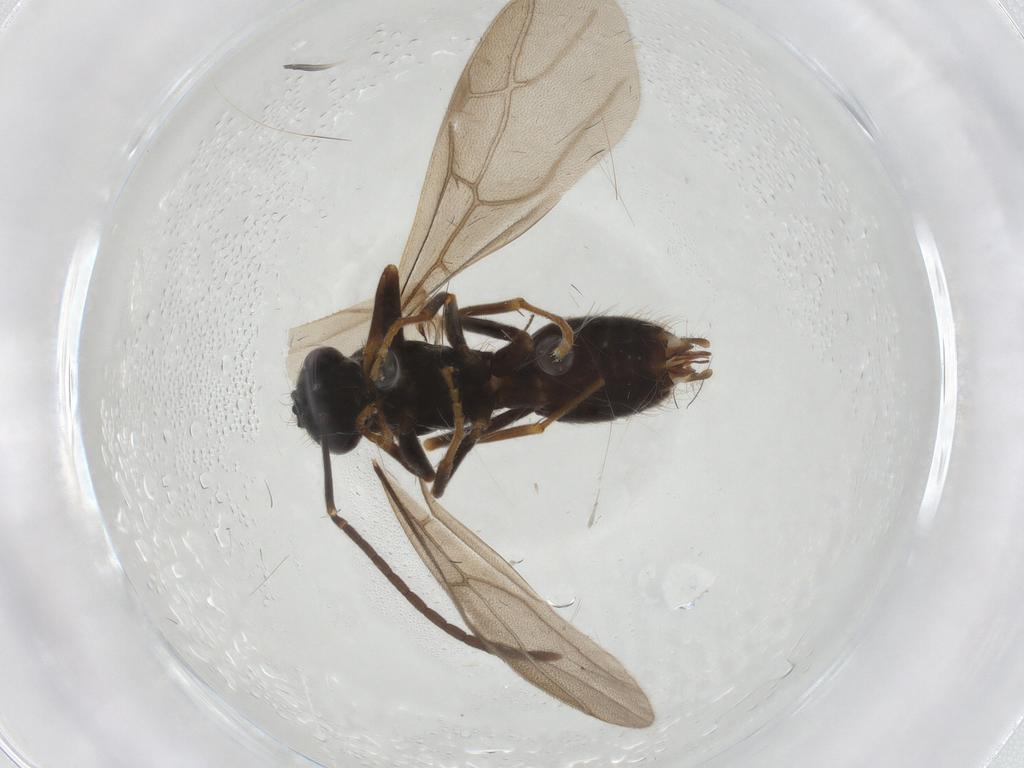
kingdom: Animalia
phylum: Arthropoda
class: Insecta
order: Hymenoptera
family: Formicidae
